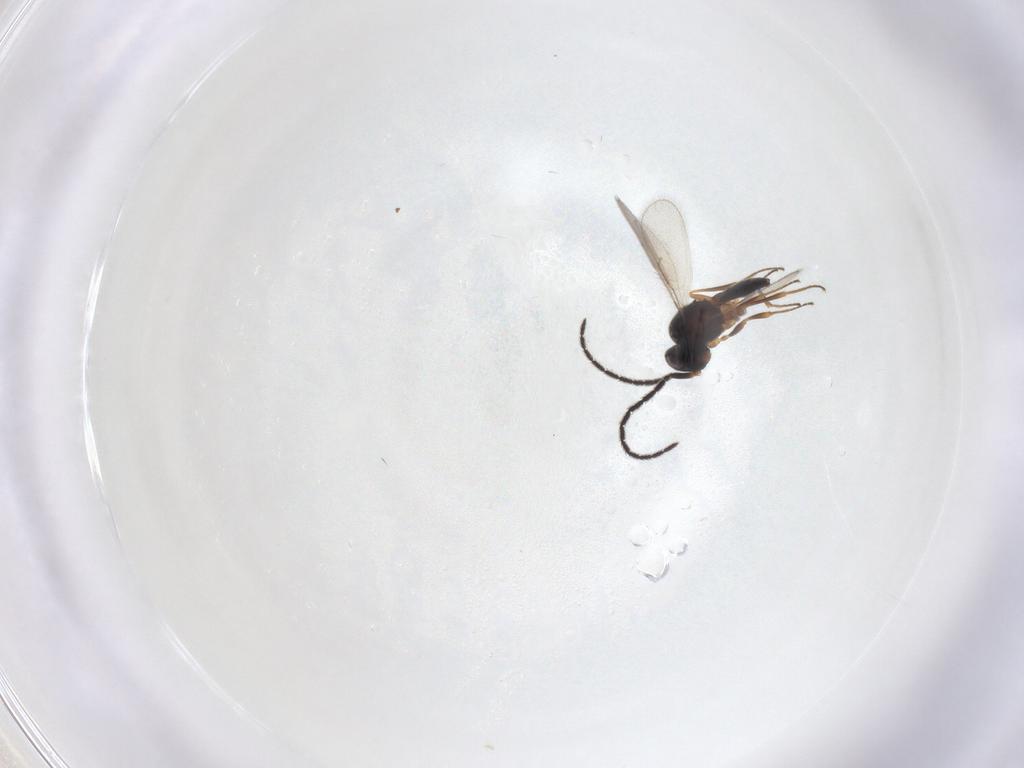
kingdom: Animalia
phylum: Arthropoda
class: Insecta
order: Hymenoptera
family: Scelionidae
